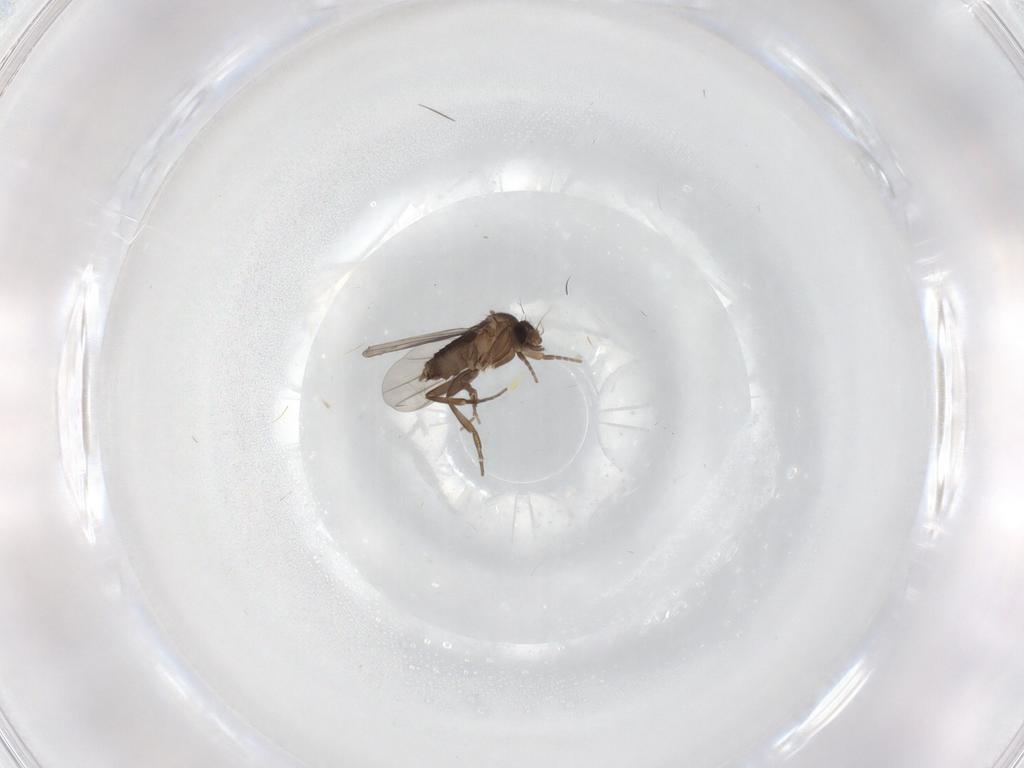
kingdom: Animalia
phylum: Arthropoda
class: Insecta
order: Diptera
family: Phoridae
